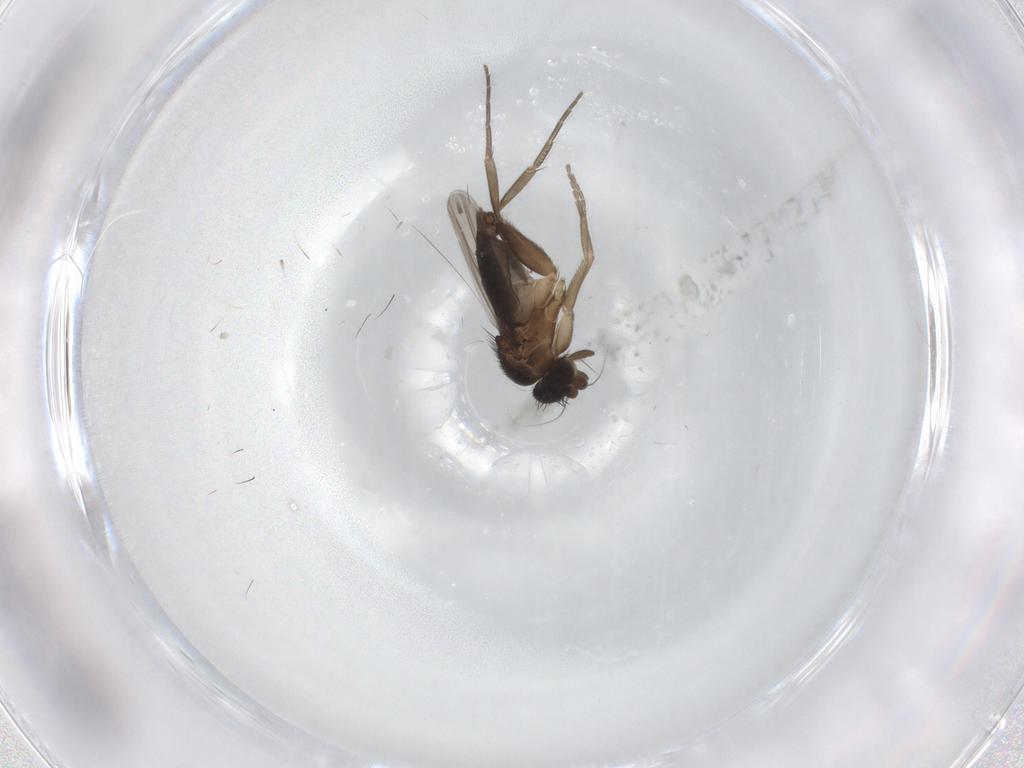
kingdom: Animalia
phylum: Arthropoda
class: Insecta
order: Diptera
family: Phoridae
